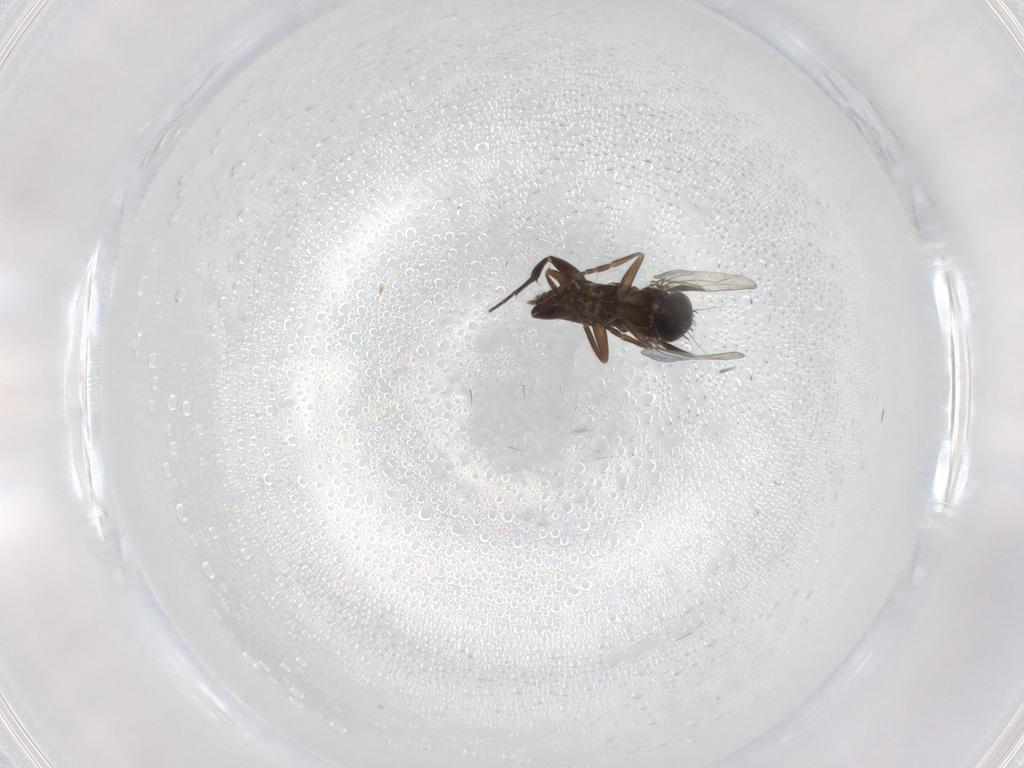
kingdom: Animalia
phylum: Arthropoda
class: Insecta
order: Diptera
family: Phoridae
